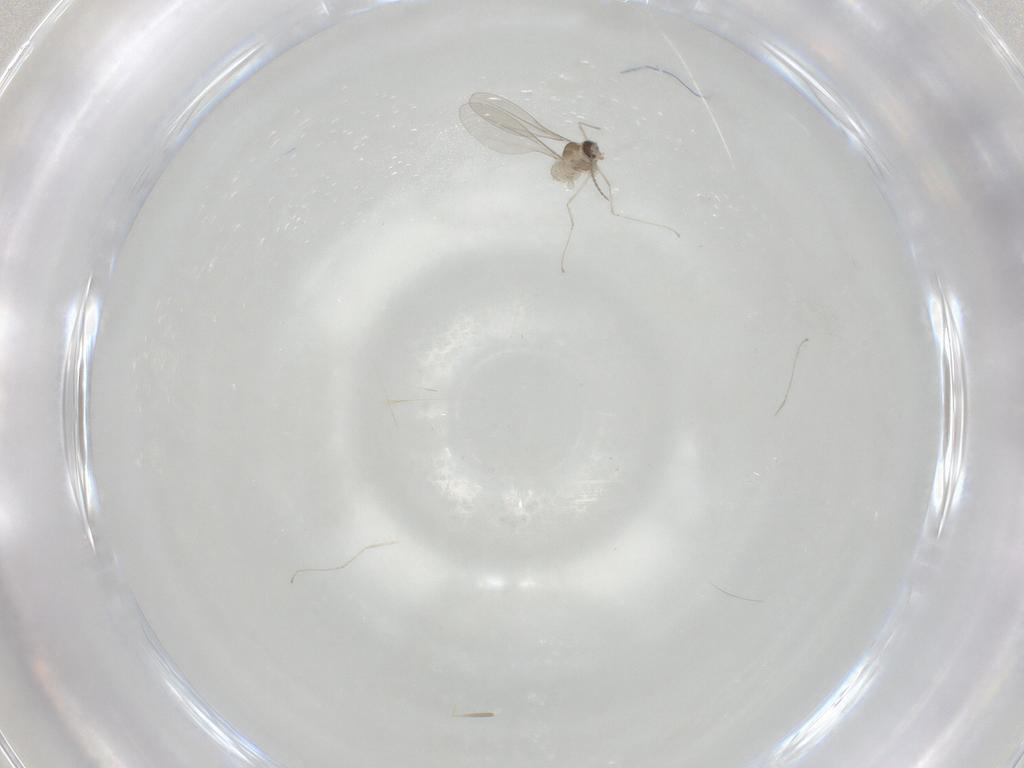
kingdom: Animalia
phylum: Arthropoda
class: Insecta
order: Diptera
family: Cecidomyiidae
